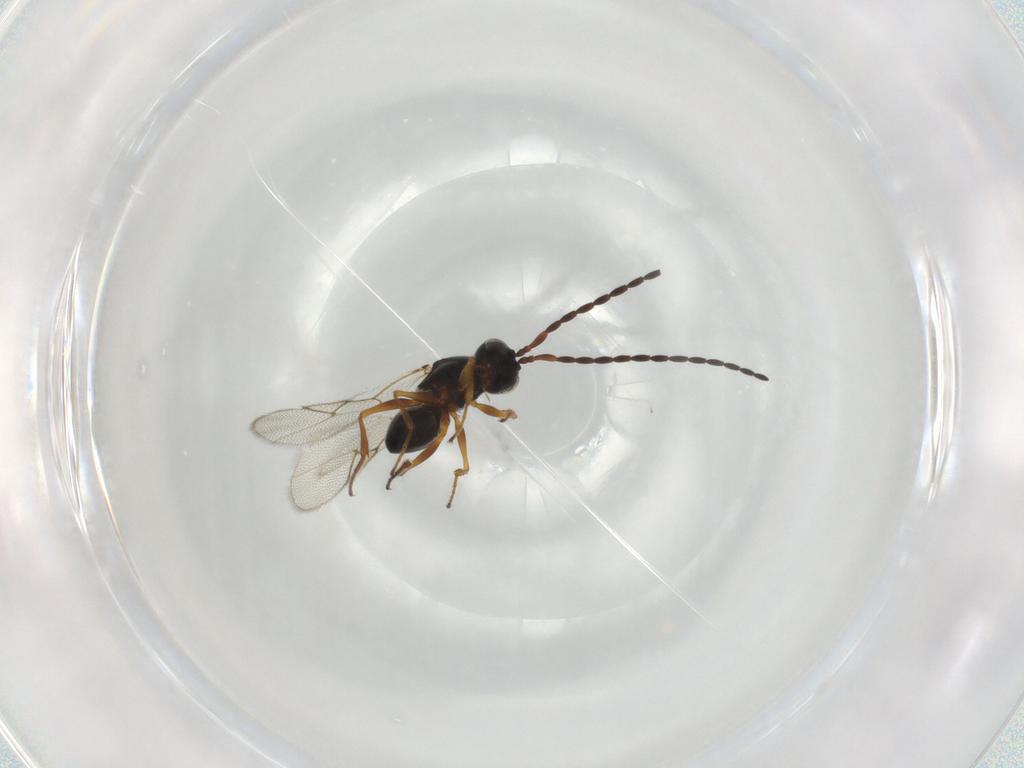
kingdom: Animalia
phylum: Arthropoda
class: Insecta
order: Hymenoptera
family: Figitidae
